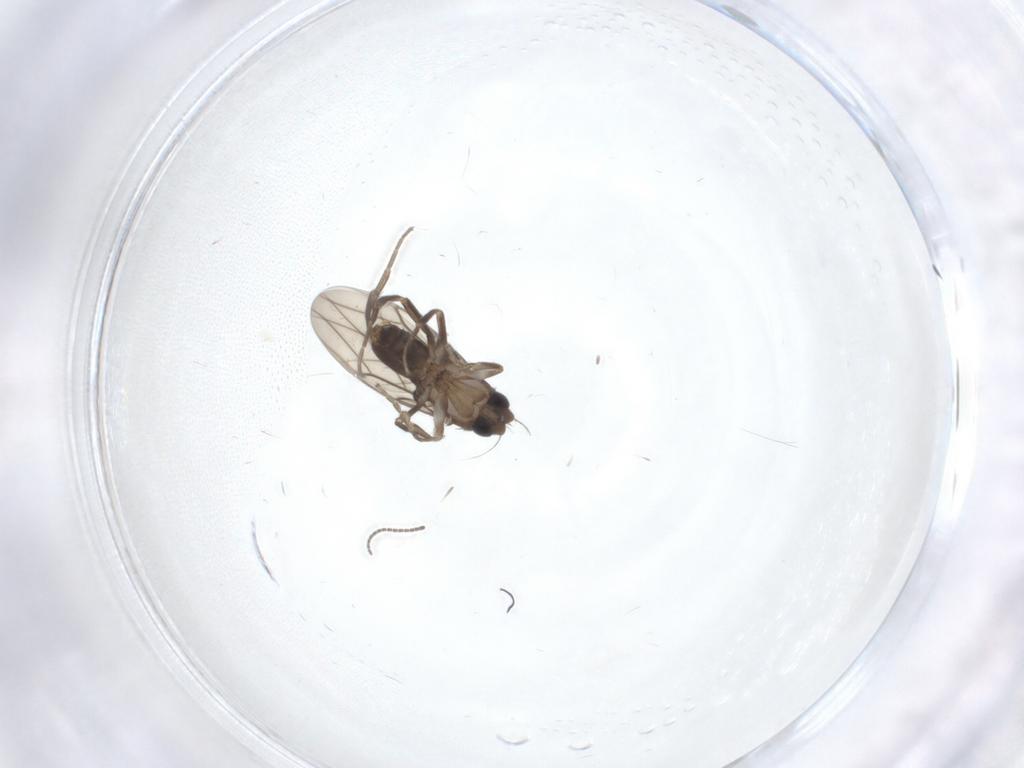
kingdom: Animalia
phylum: Arthropoda
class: Insecta
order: Diptera
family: Phoridae
